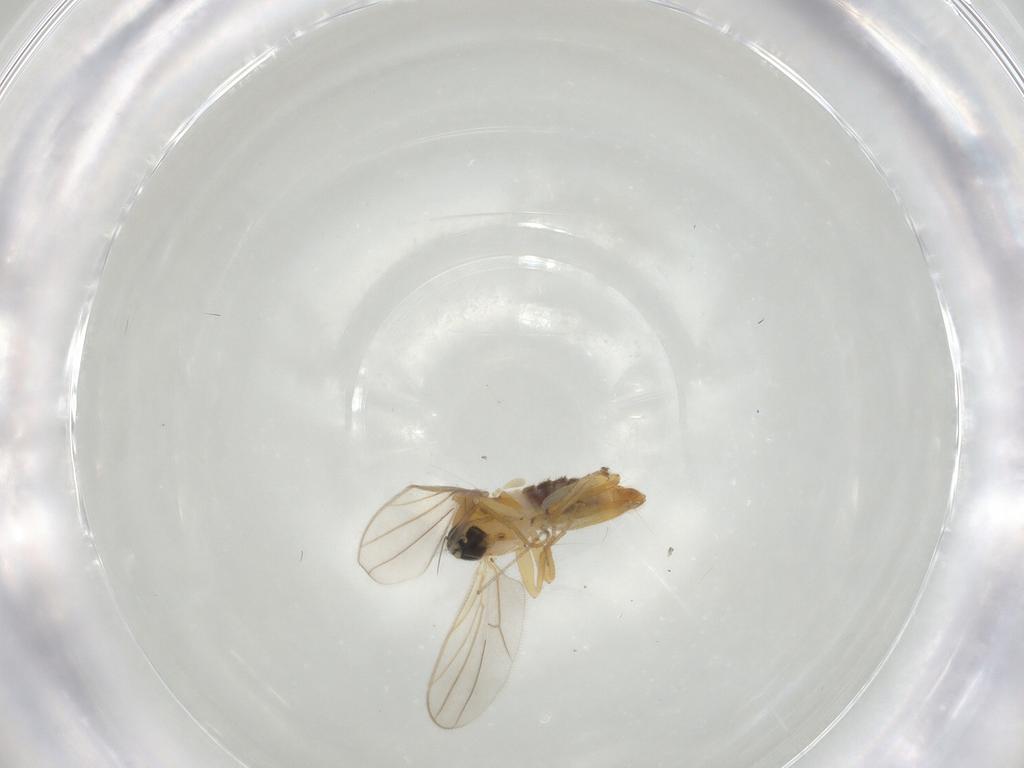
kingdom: Animalia
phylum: Arthropoda
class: Insecta
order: Diptera
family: Hybotidae
